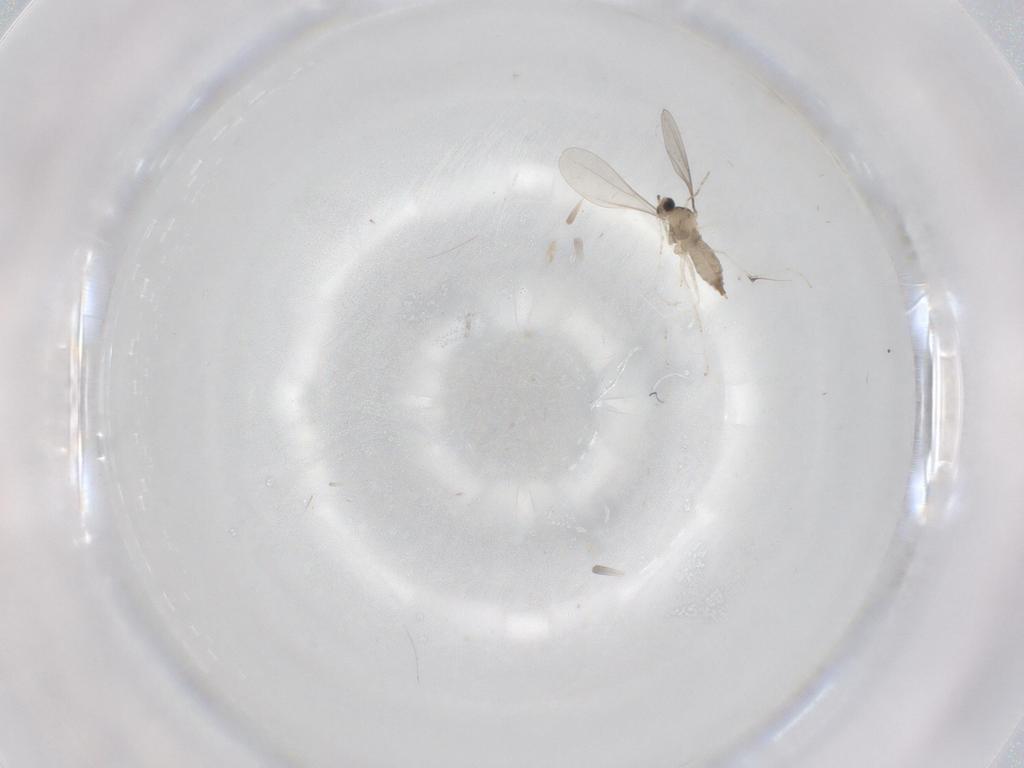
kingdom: Animalia
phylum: Arthropoda
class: Insecta
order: Diptera
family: Cecidomyiidae
